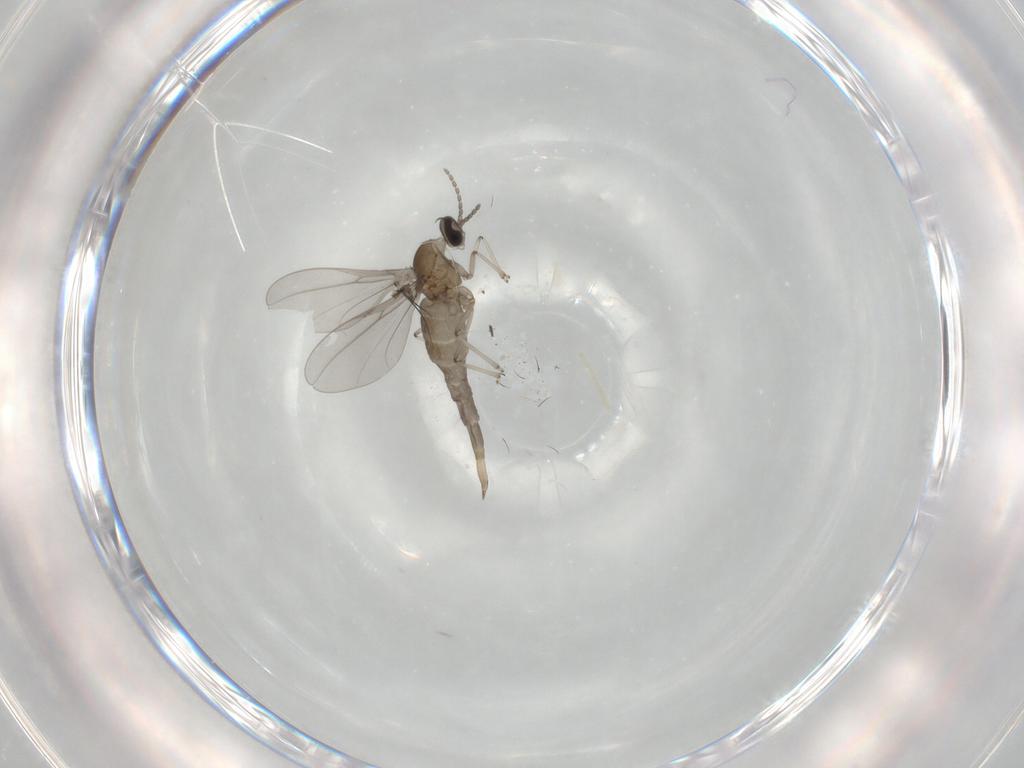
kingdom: Animalia
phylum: Arthropoda
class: Insecta
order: Diptera
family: Cecidomyiidae
